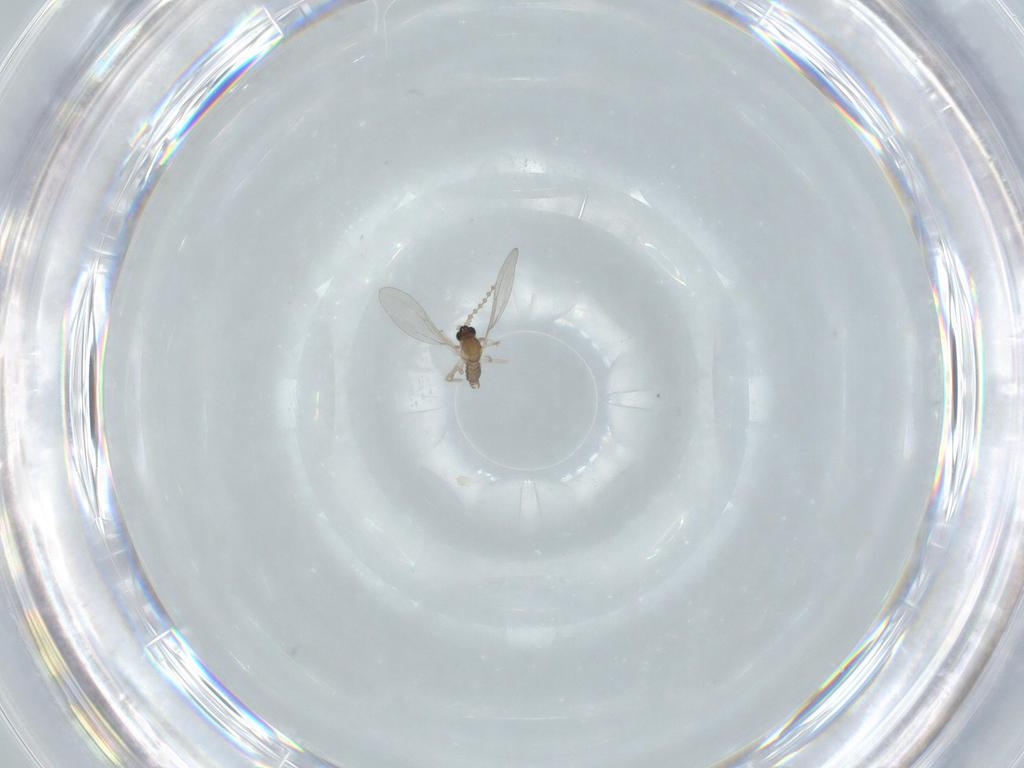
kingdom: Animalia
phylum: Arthropoda
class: Insecta
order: Diptera
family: Cecidomyiidae
